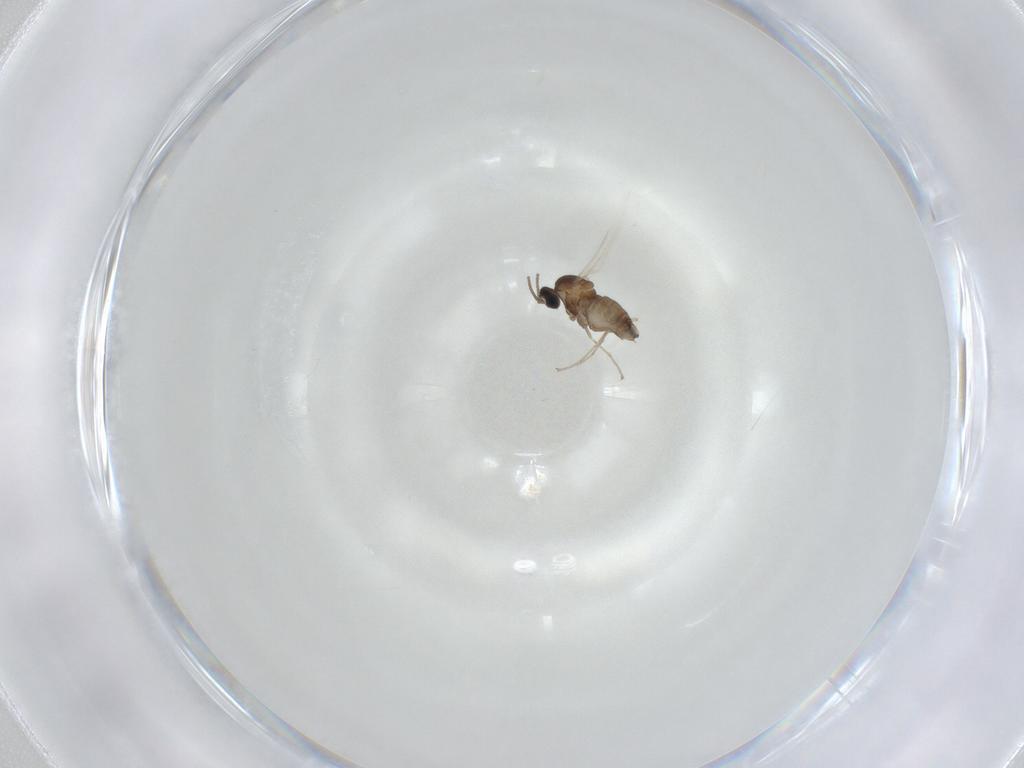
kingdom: Animalia
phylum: Arthropoda
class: Insecta
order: Diptera
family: Cecidomyiidae
